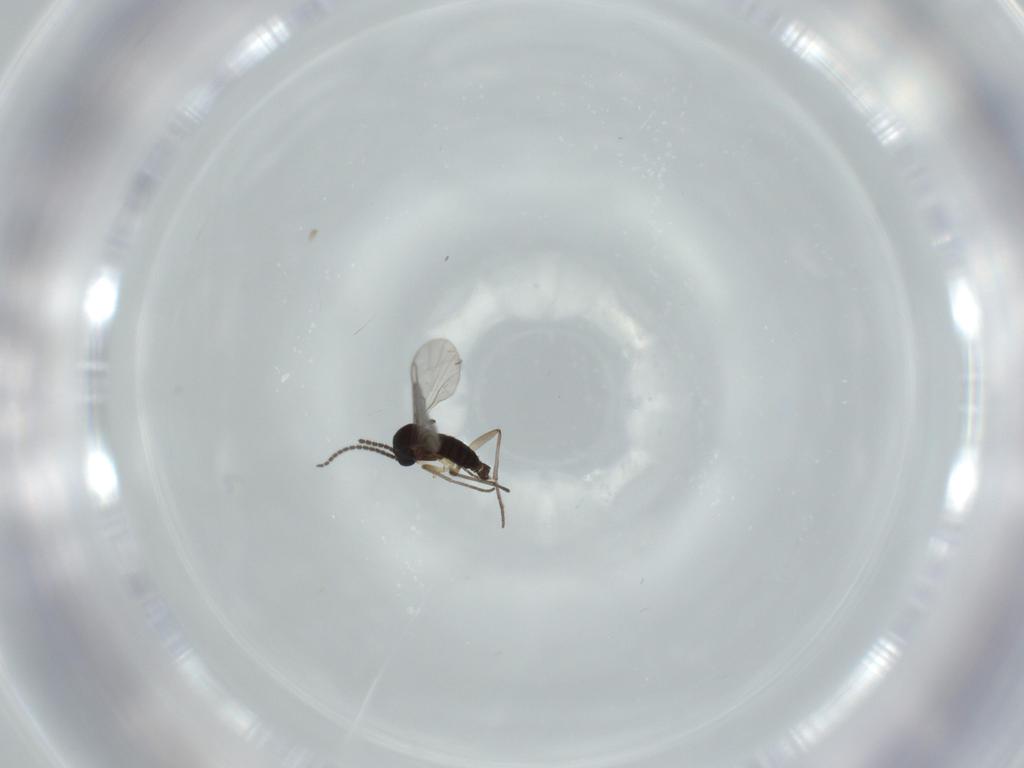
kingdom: Animalia
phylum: Arthropoda
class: Insecta
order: Diptera
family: Sciaridae
